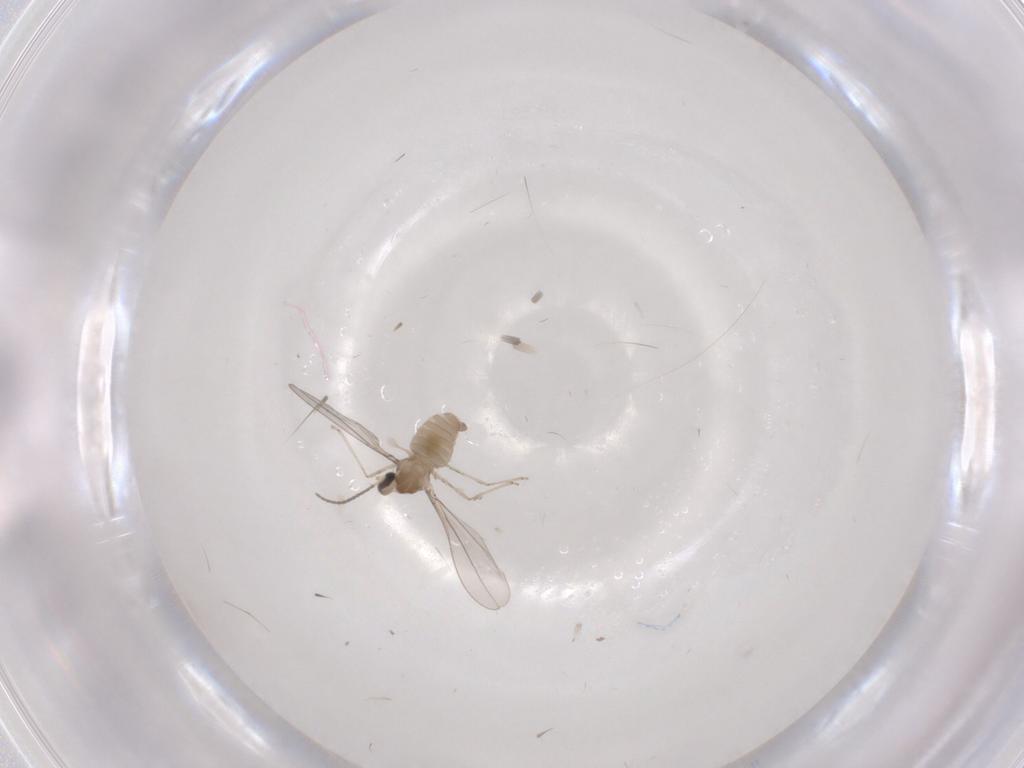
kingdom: Animalia
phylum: Arthropoda
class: Insecta
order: Diptera
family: Chironomidae
